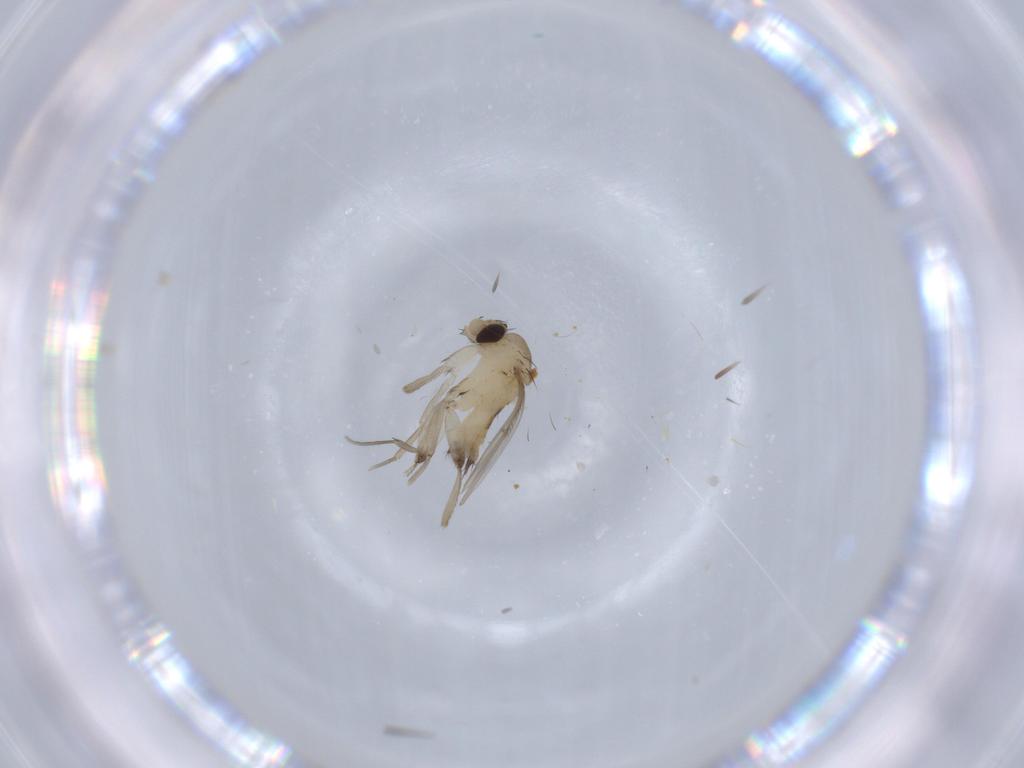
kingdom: Animalia
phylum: Arthropoda
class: Insecta
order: Diptera
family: Phoridae
